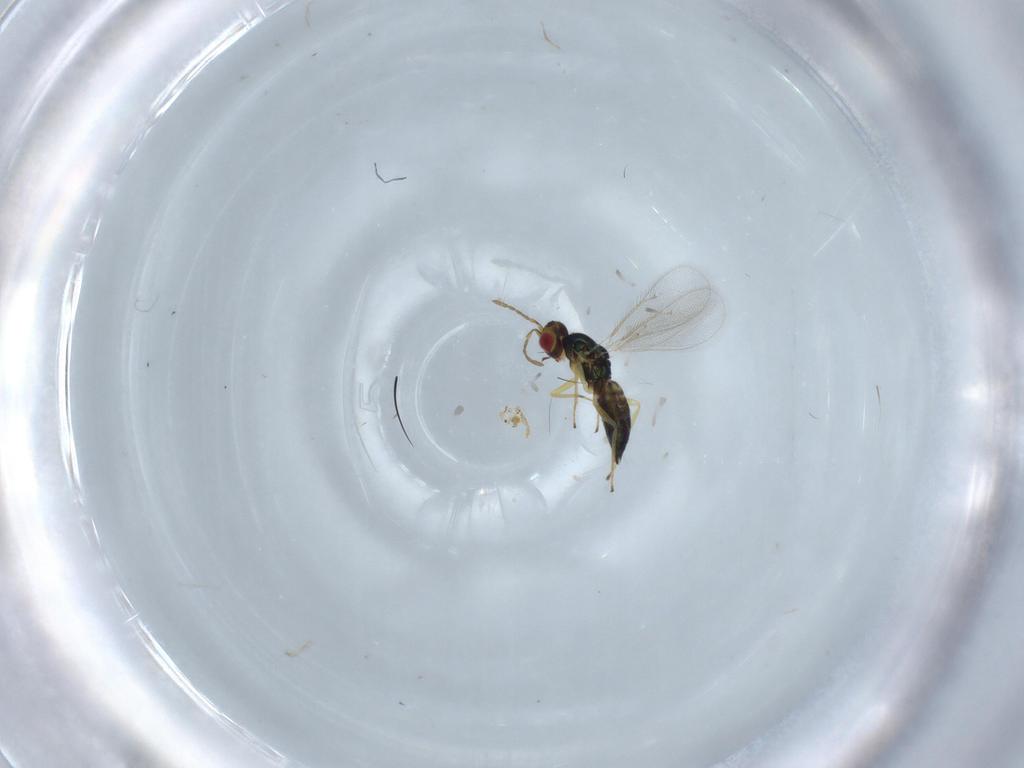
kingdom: Animalia
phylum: Arthropoda
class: Insecta
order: Hymenoptera
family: Eulophidae
